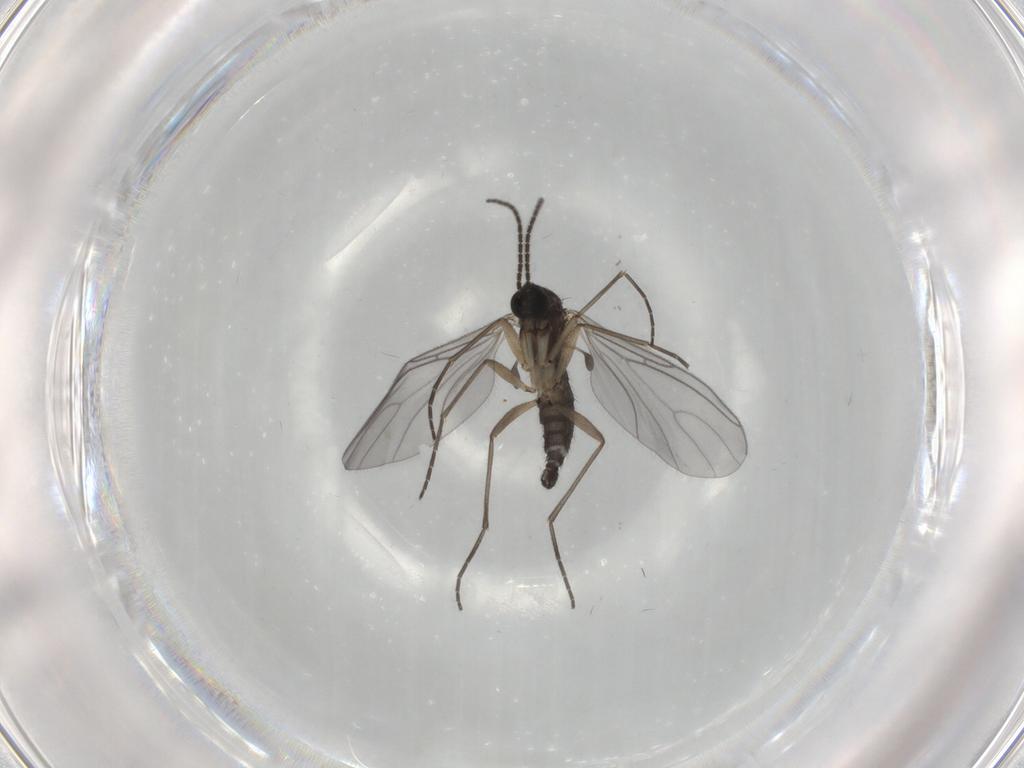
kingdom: Animalia
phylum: Arthropoda
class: Insecta
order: Diptera
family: Sciaridae
